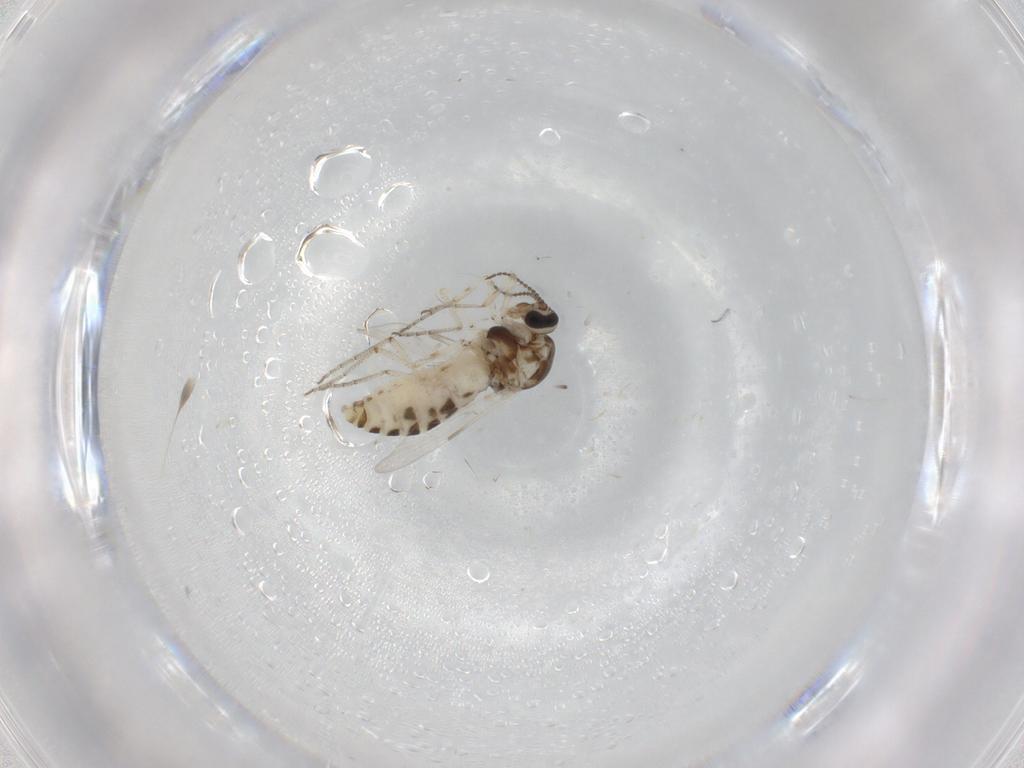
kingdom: Animalia
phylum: Arthropoda
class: Insecta
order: Diptera
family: Ceratopogonidae
